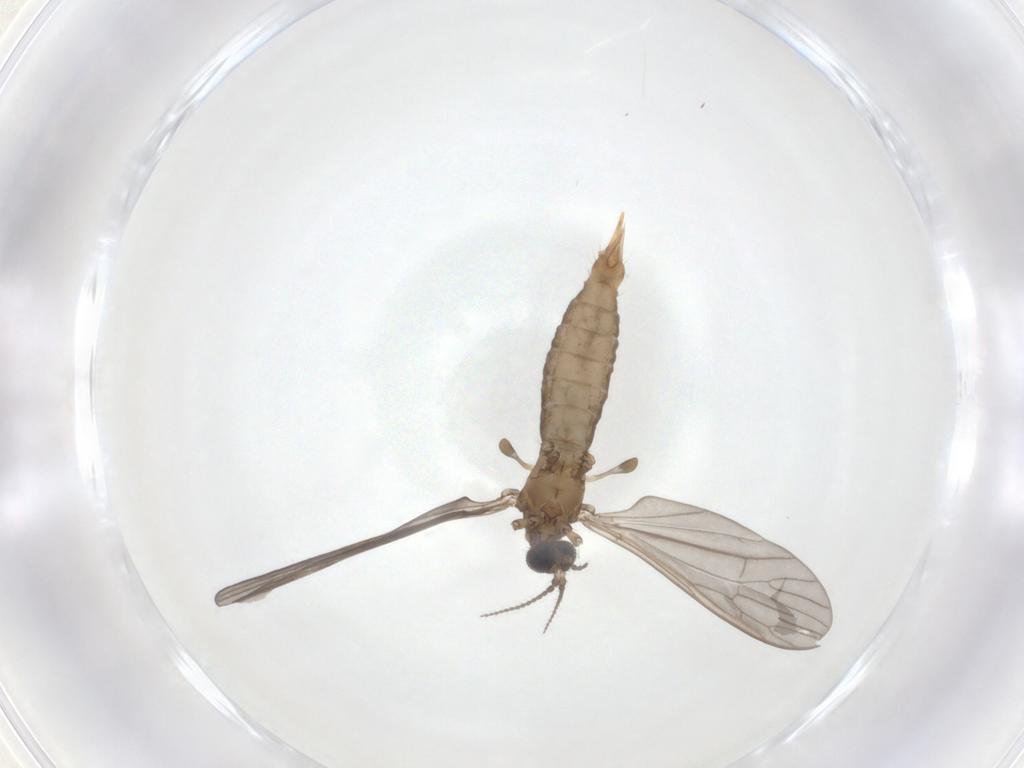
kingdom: Animalia
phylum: Arthropoda
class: Insecta
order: Diptera
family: Limoniidae
